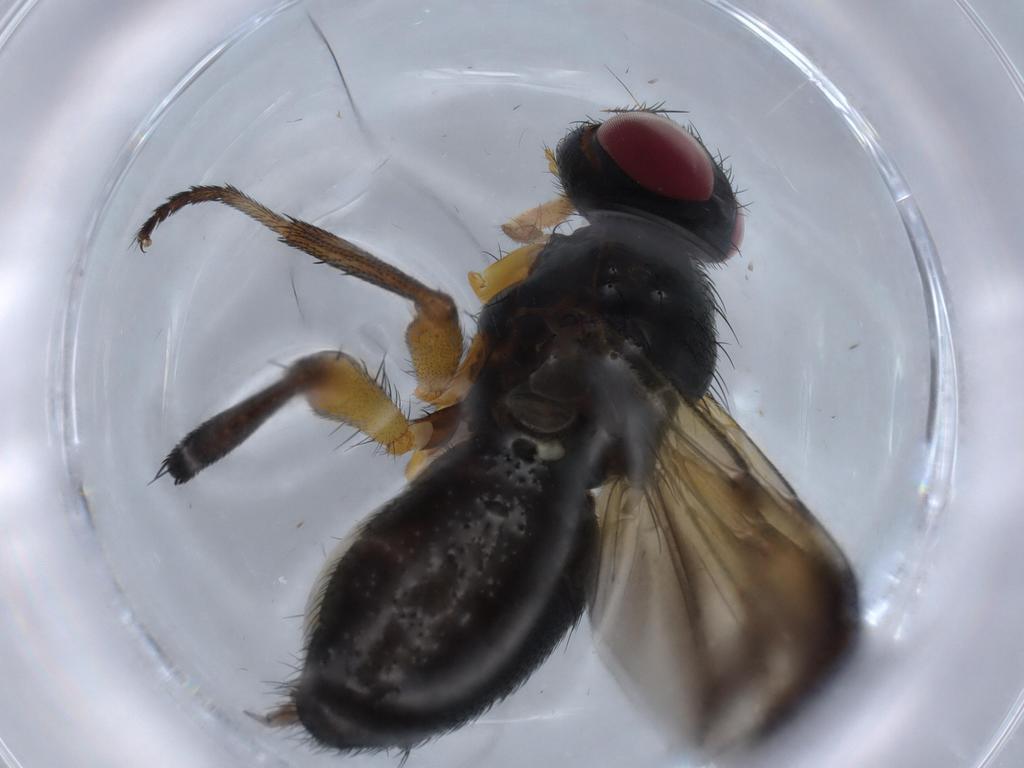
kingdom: Animalia
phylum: Arthropoda
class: Insecta
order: Diptera
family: Calliphoridae
